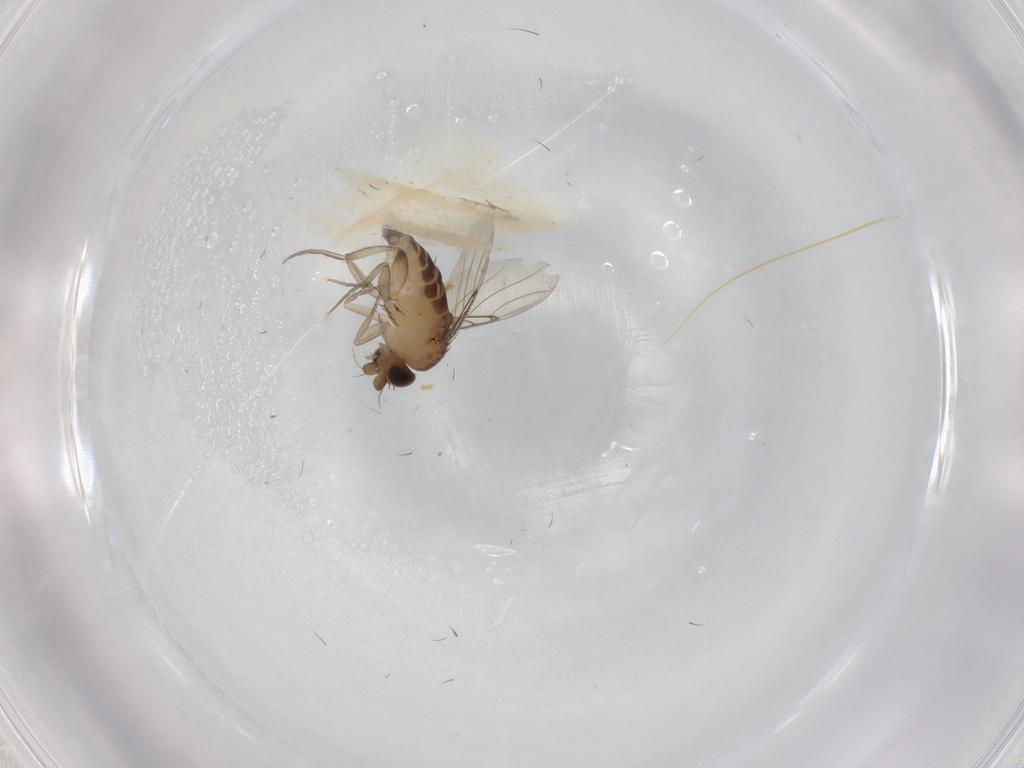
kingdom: Animalia
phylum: Arthropoda
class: Insecta
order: Diptera
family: Phoridae
